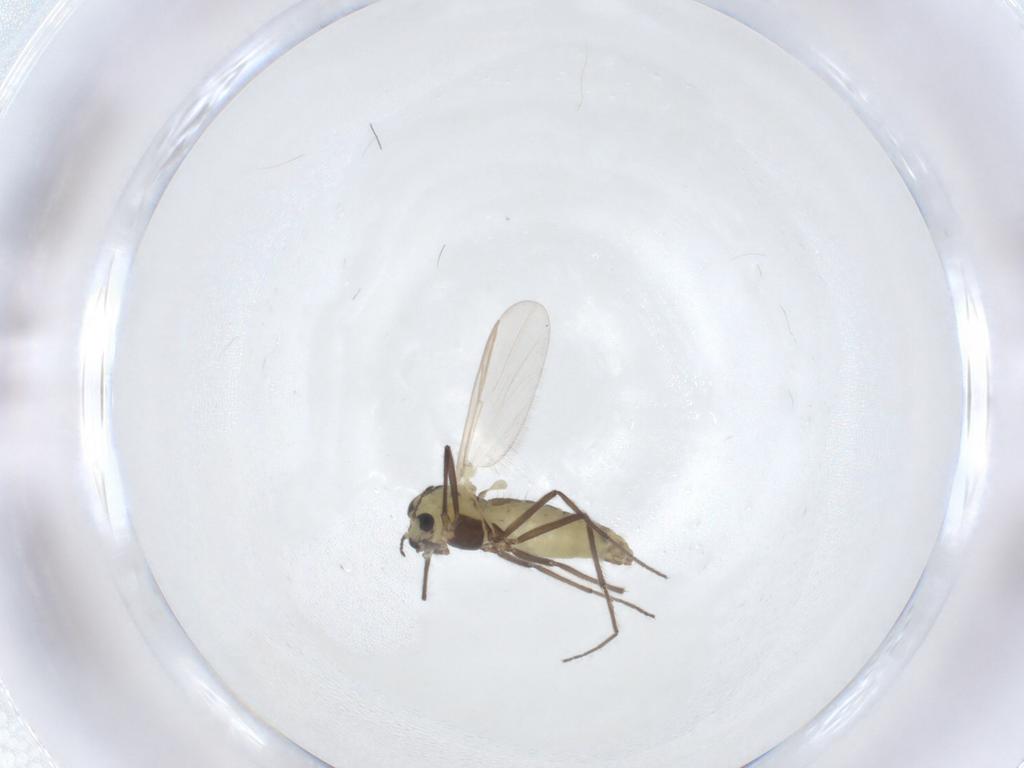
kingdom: Animalia
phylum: Arthropoda
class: Insecta
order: Diptera
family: Chironomidae
